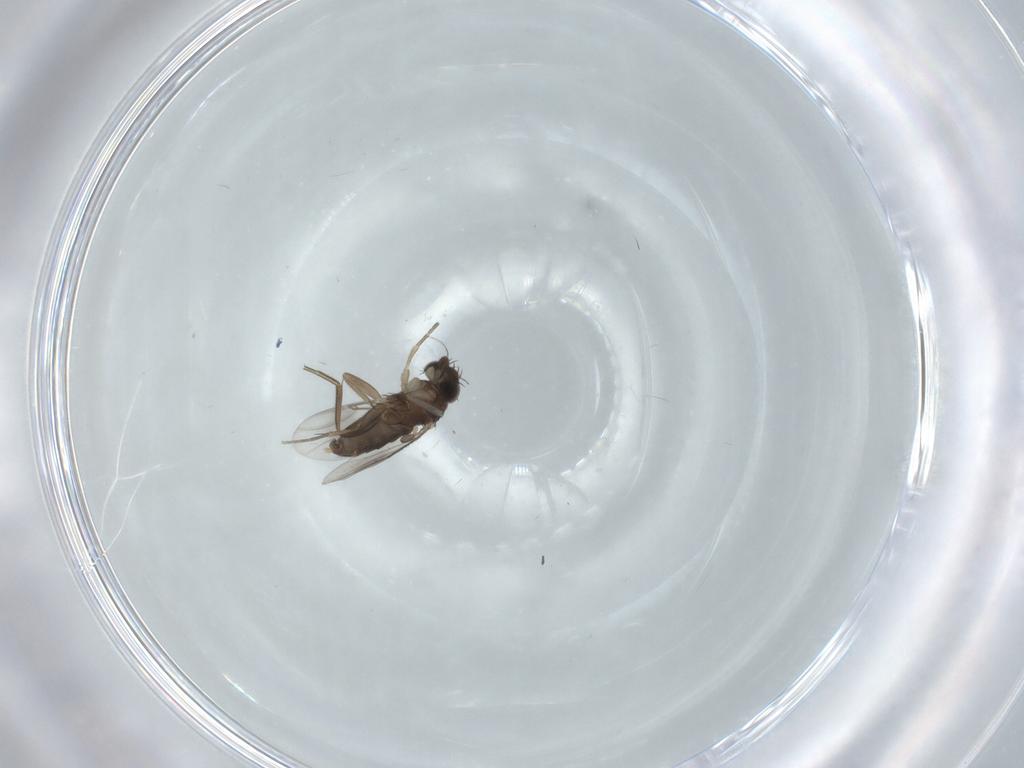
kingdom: Animalia
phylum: Arthropoda
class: Insecta
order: Diptera
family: Phoridae
